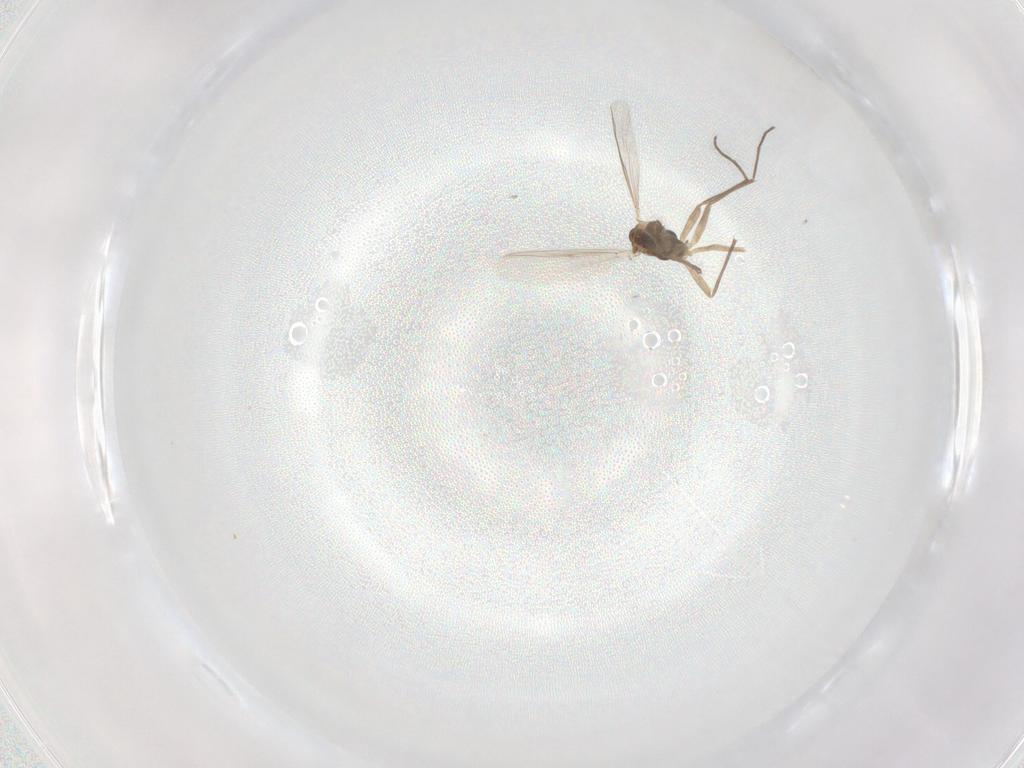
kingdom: Animalia
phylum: Arthropoda
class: Insecta
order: Diptera
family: Chironomidae
